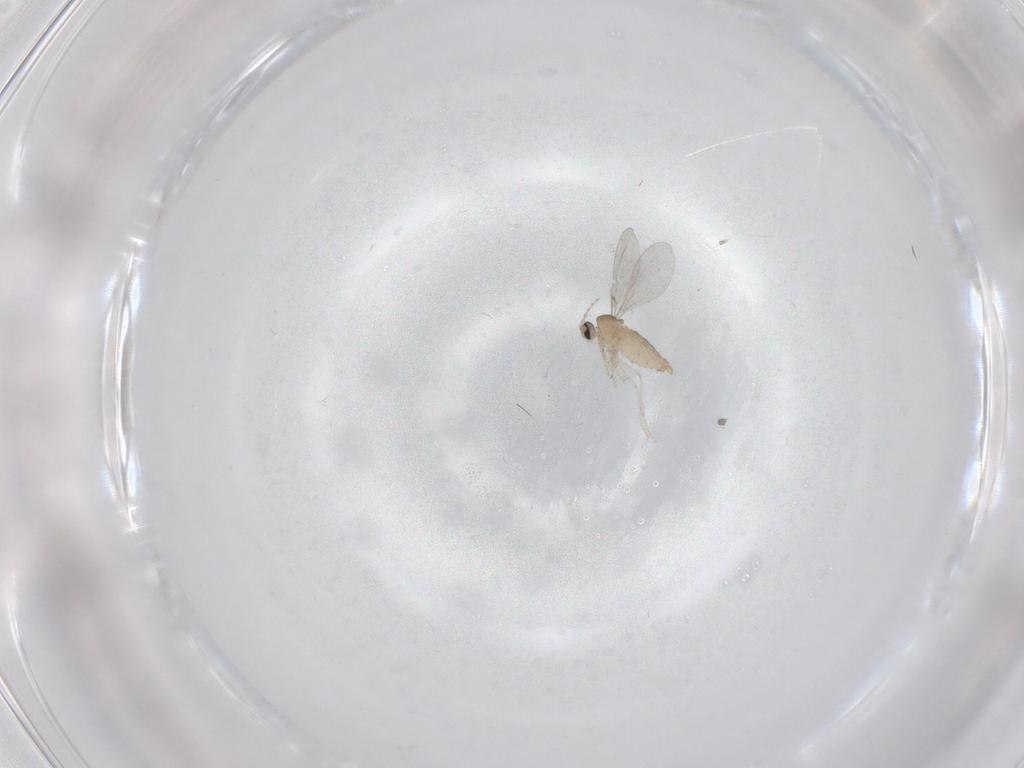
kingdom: Animalia
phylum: Arthropoda
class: Insecta
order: Diptera
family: Cecidomyiidae
